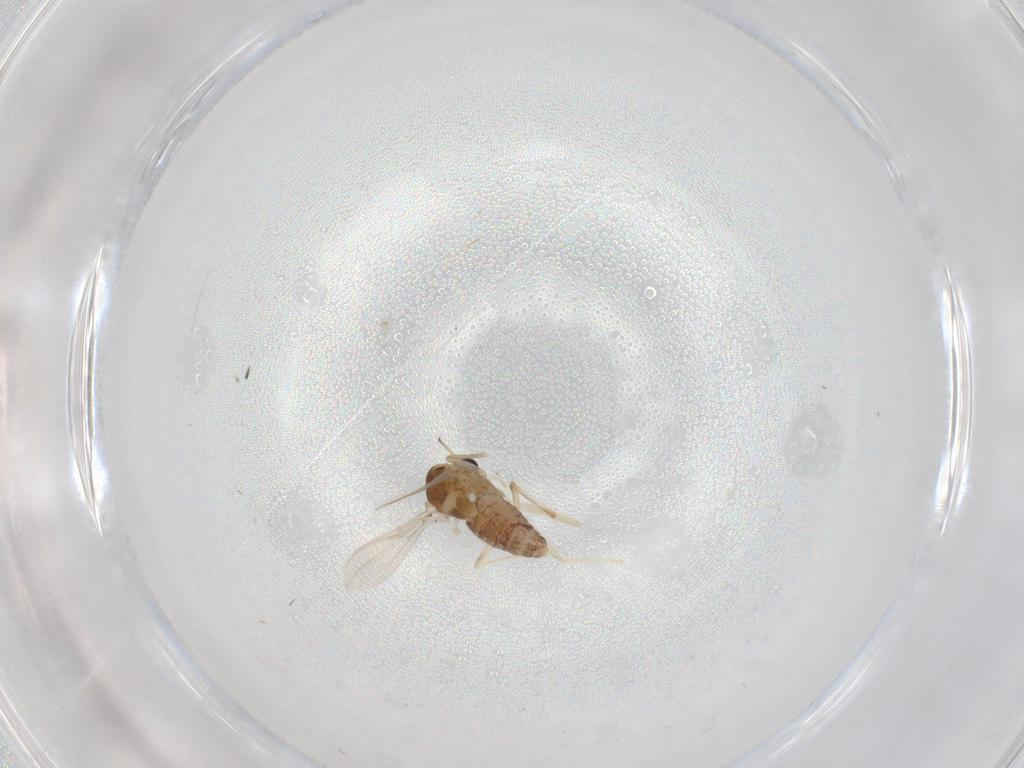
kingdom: Animalia
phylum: Arthropoda
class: Insecta
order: Diptera
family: Chironomidae
